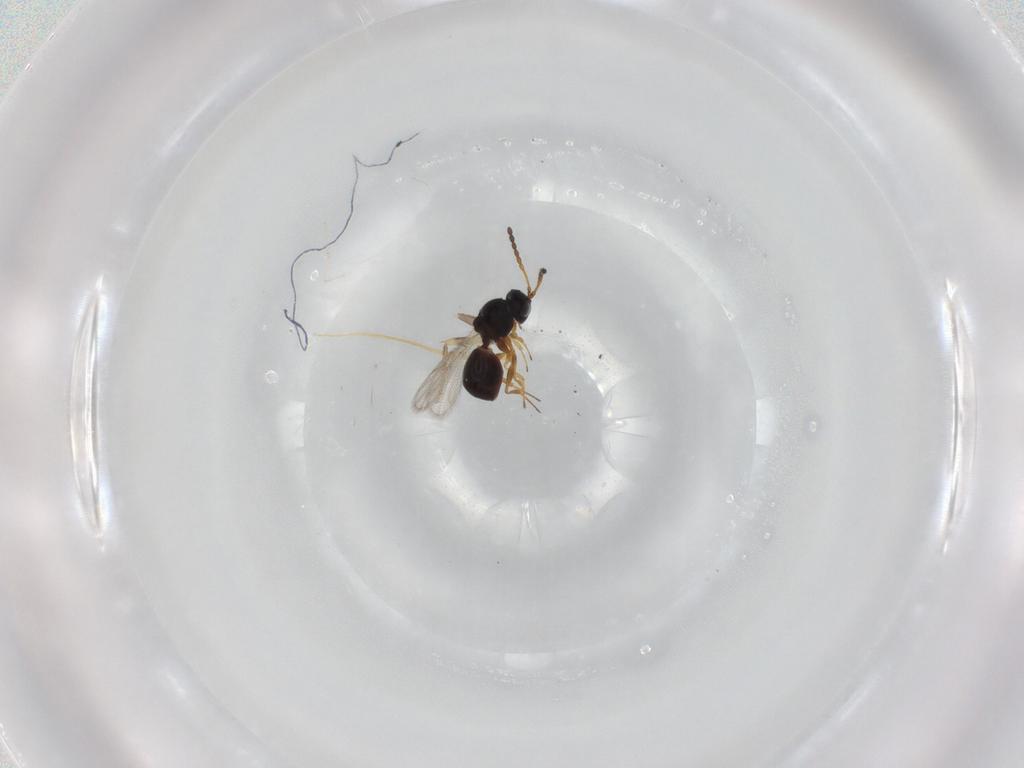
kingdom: Animalia
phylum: Arthropoda
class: Insecta
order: Hymenoptera
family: Figitidae
